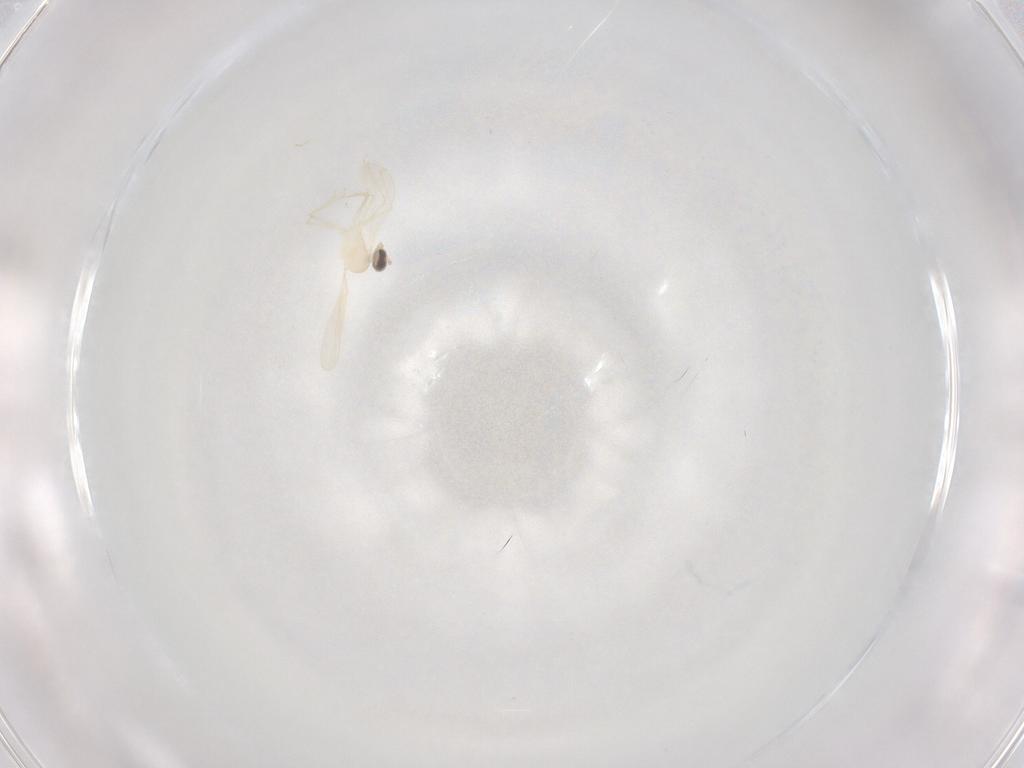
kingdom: Animalia
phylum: Arthropoda
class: Insecta
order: Diptera
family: Cecidomyiidae
